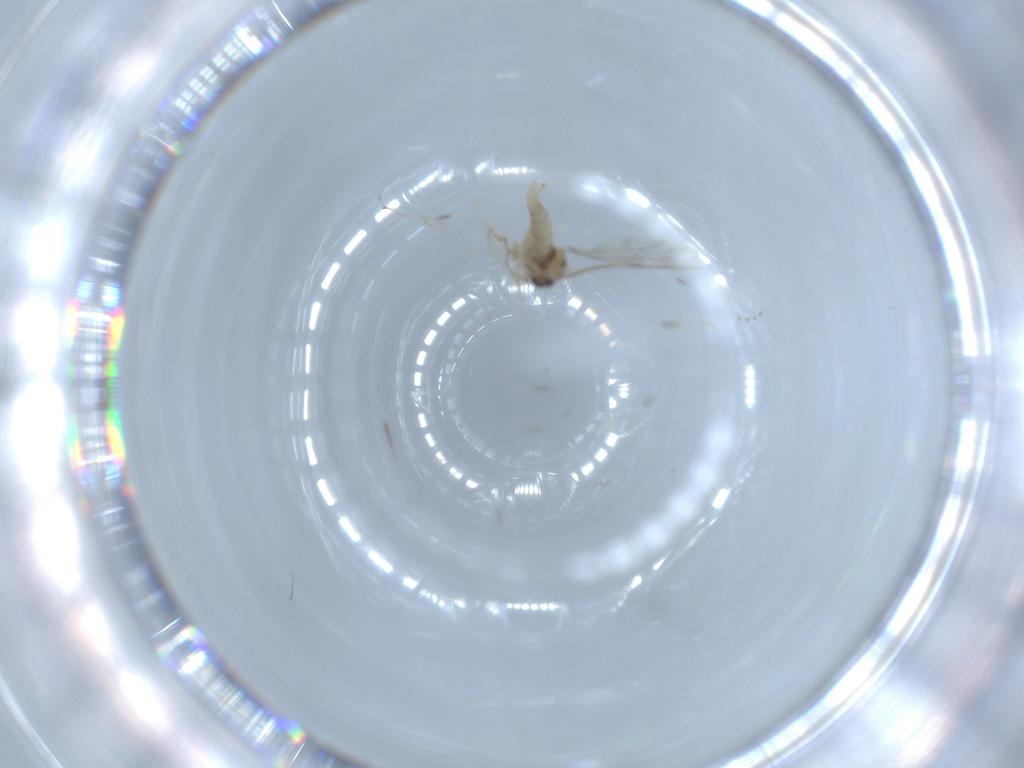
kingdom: Animalia
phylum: Arthropoda
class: Insecta
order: Diptera
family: Cecidomyiidae
